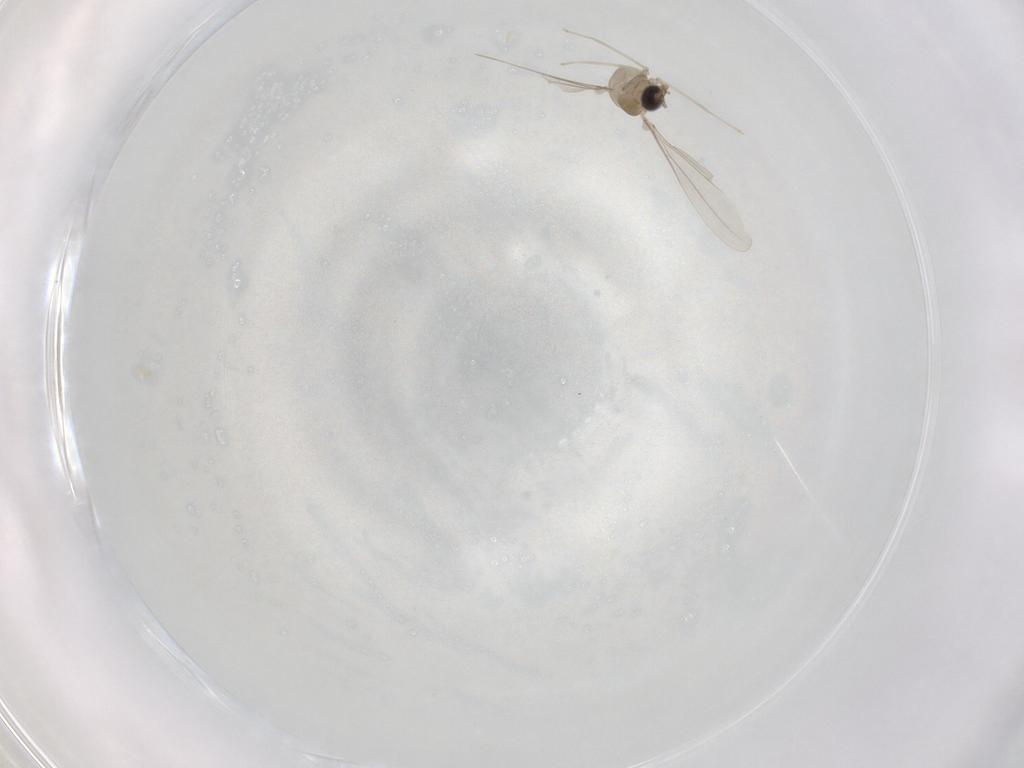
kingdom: Animalia
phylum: Arthropoda
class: Insecta
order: Diptera
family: Cecidomyiidae
